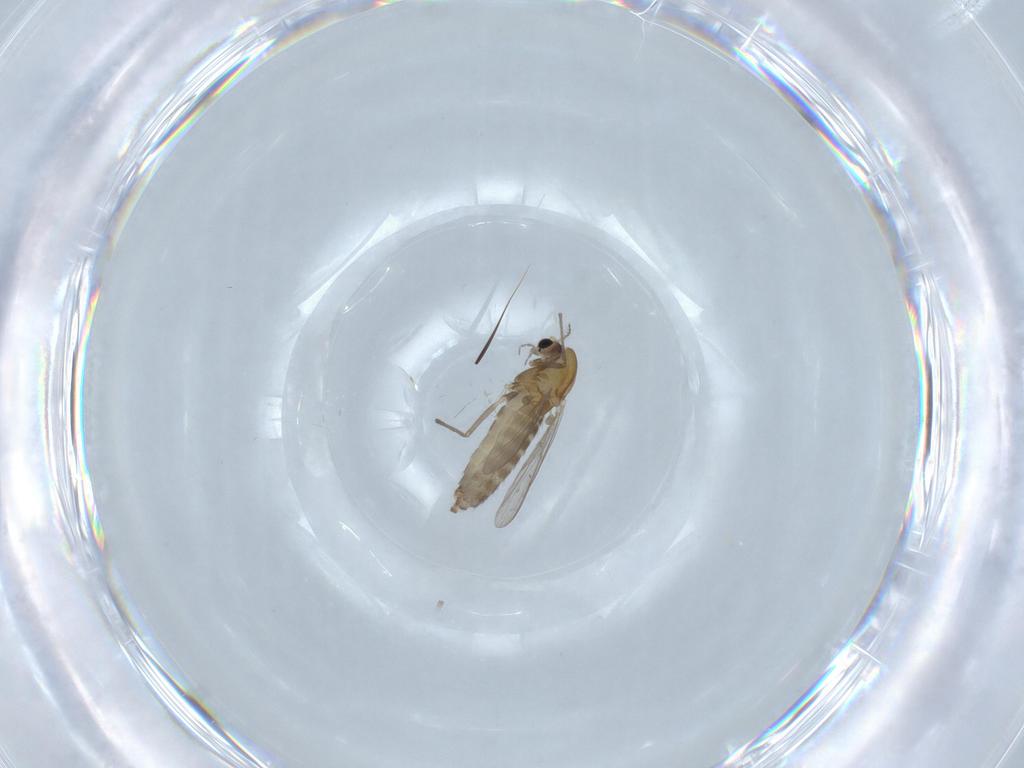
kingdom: Animalia
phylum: Arthropoda
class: Insecta
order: Diptera
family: Chironomidae
